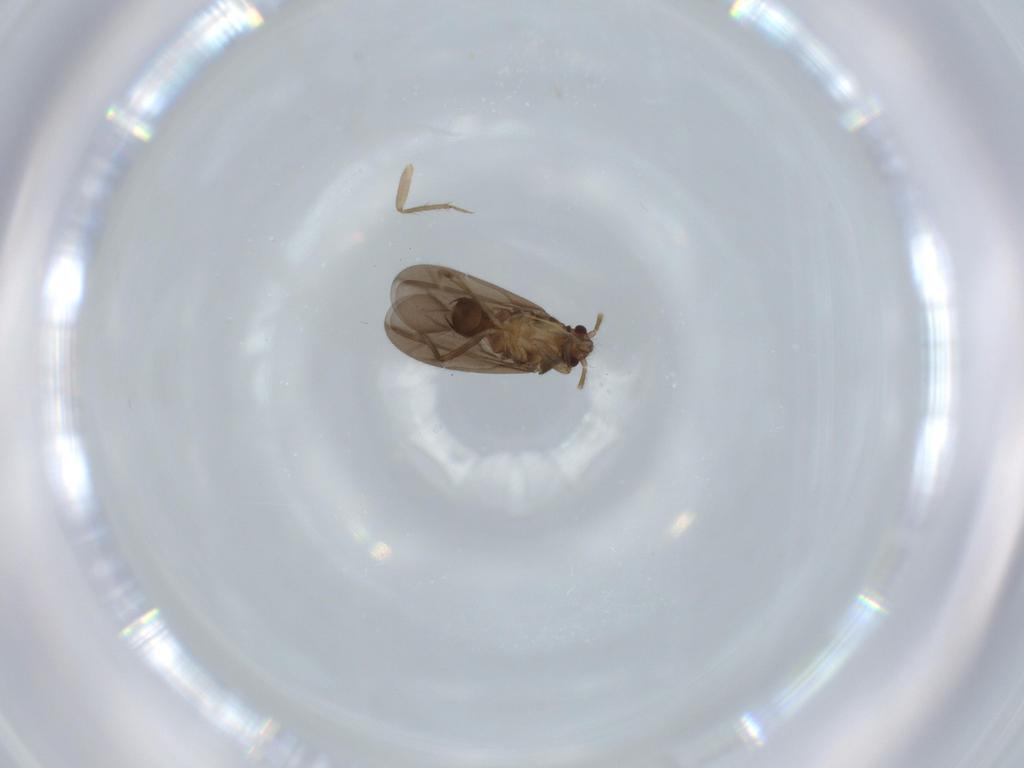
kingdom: Animalia
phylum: Arthropoda
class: Insecta
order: Hemiptera
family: Ceratocombidae
